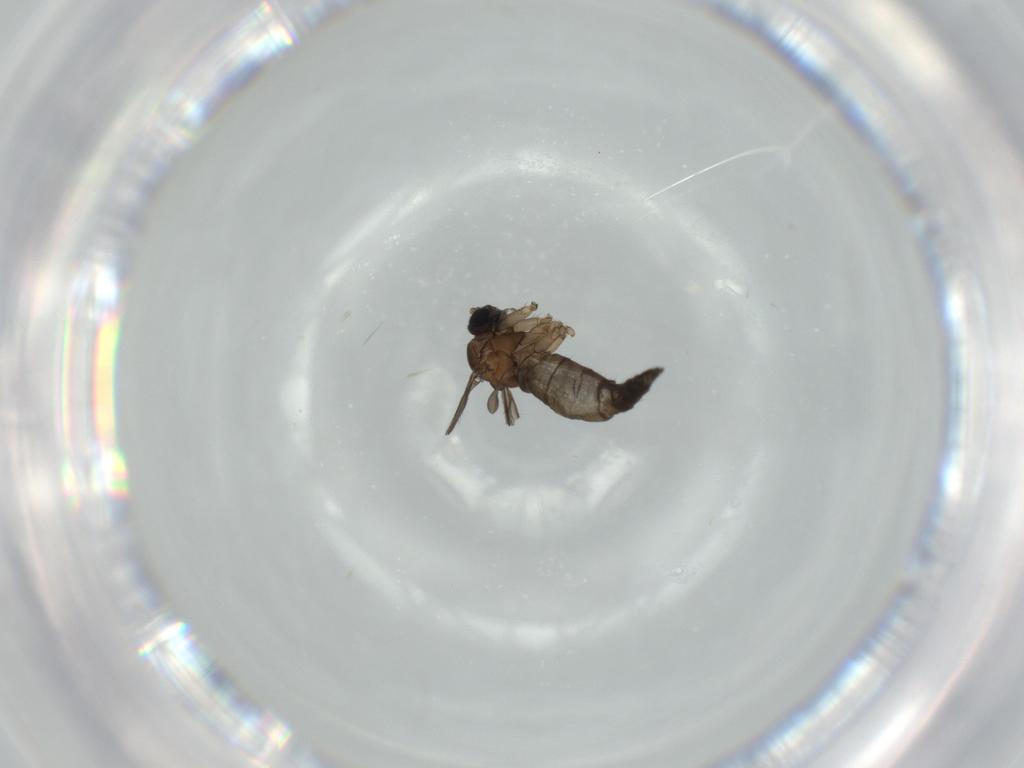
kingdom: Animalia
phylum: Arthropoda
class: Insecta
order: Diptera
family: Sciaridae
